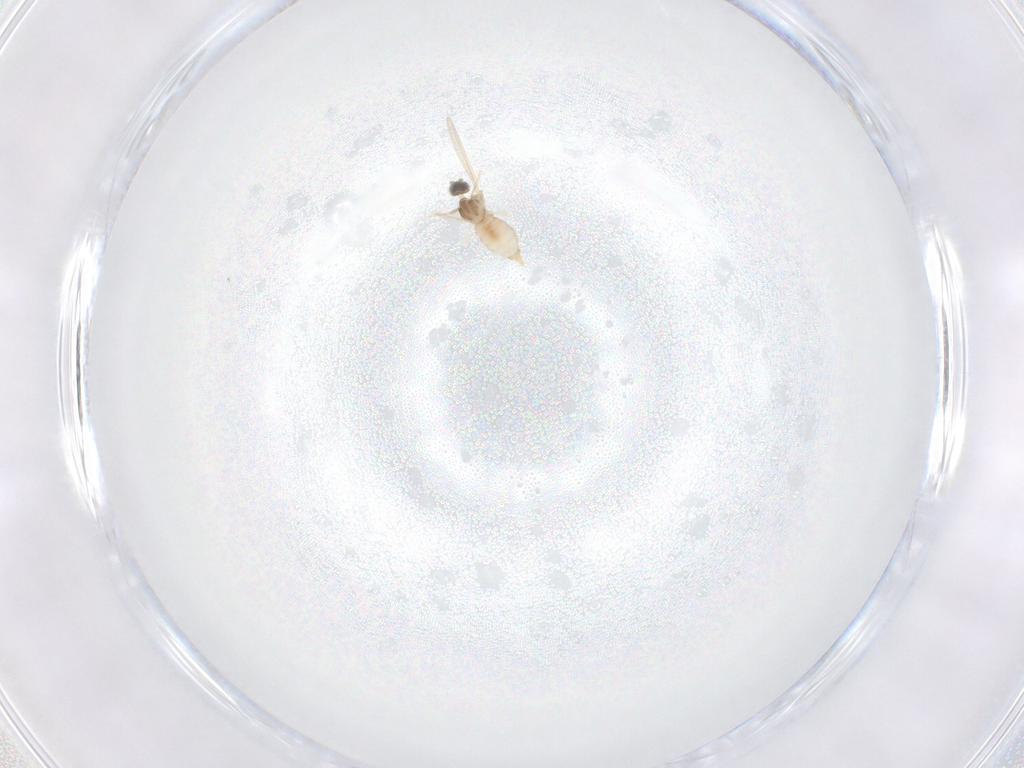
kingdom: Animalia
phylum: Arthropoda
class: Insecta
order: Diptera
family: Cecidomyiidae
